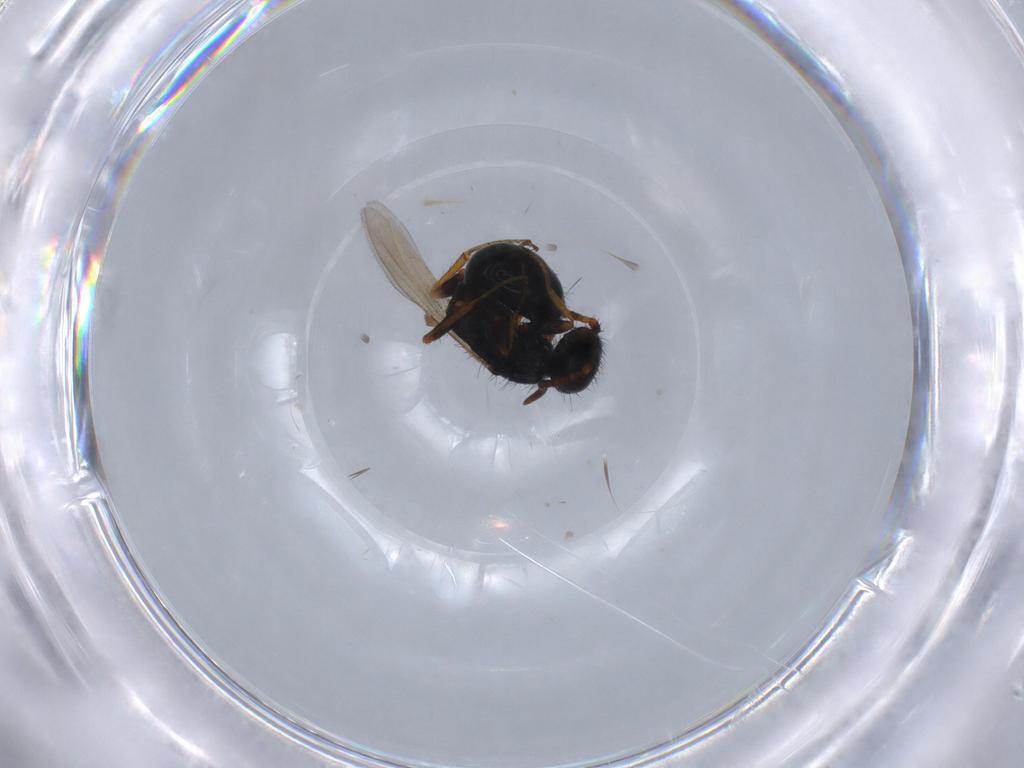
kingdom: Animalia
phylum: Arthropoda
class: Insecta
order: Hymenoptera
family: Bethylidae
